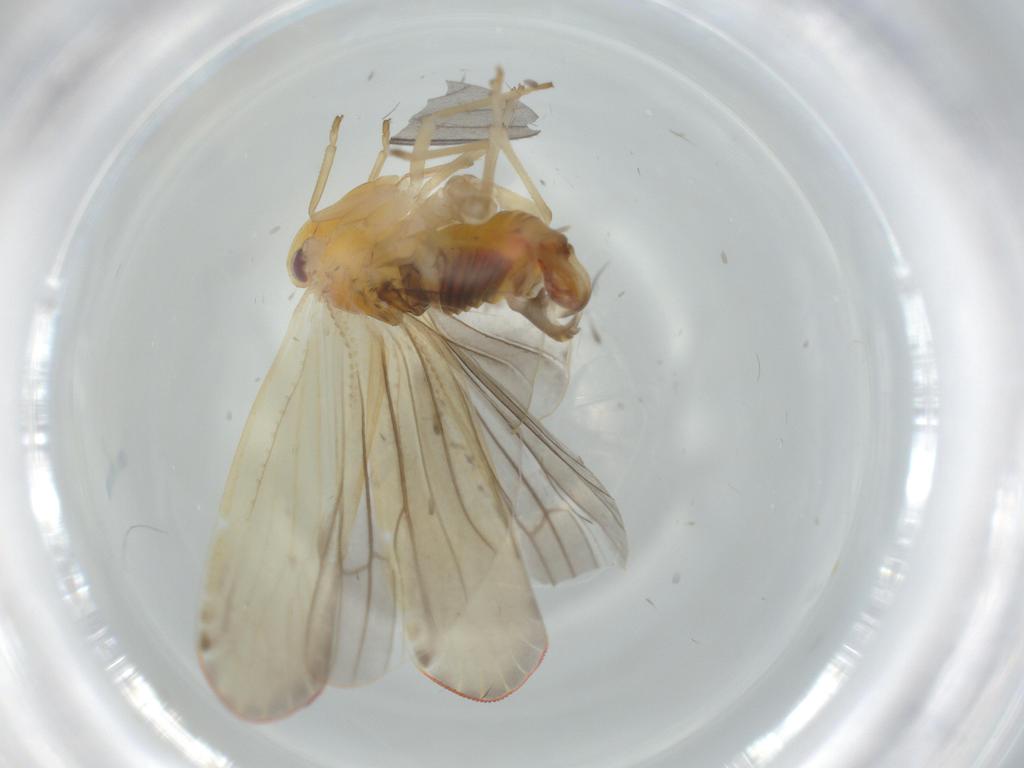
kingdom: Animalia
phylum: Arthropoda
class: Insecta
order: Hemiptera
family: Derbidae
